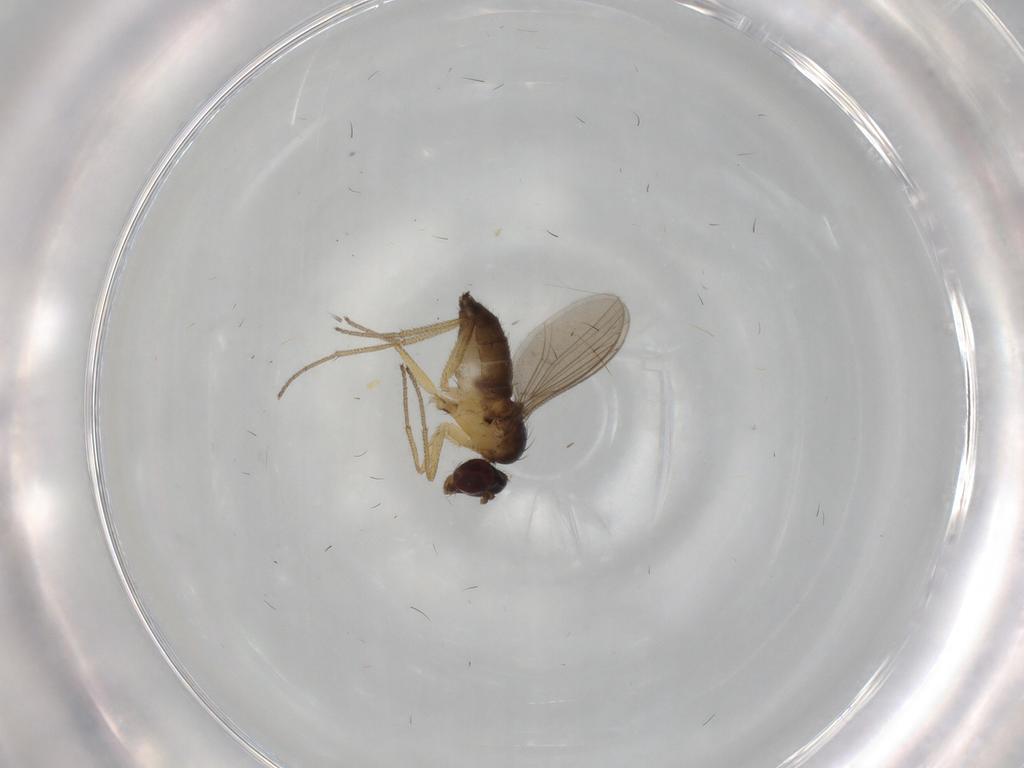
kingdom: Animalia
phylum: Arthropoda
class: Insecta
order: Diptera
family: Dolichopodidae
